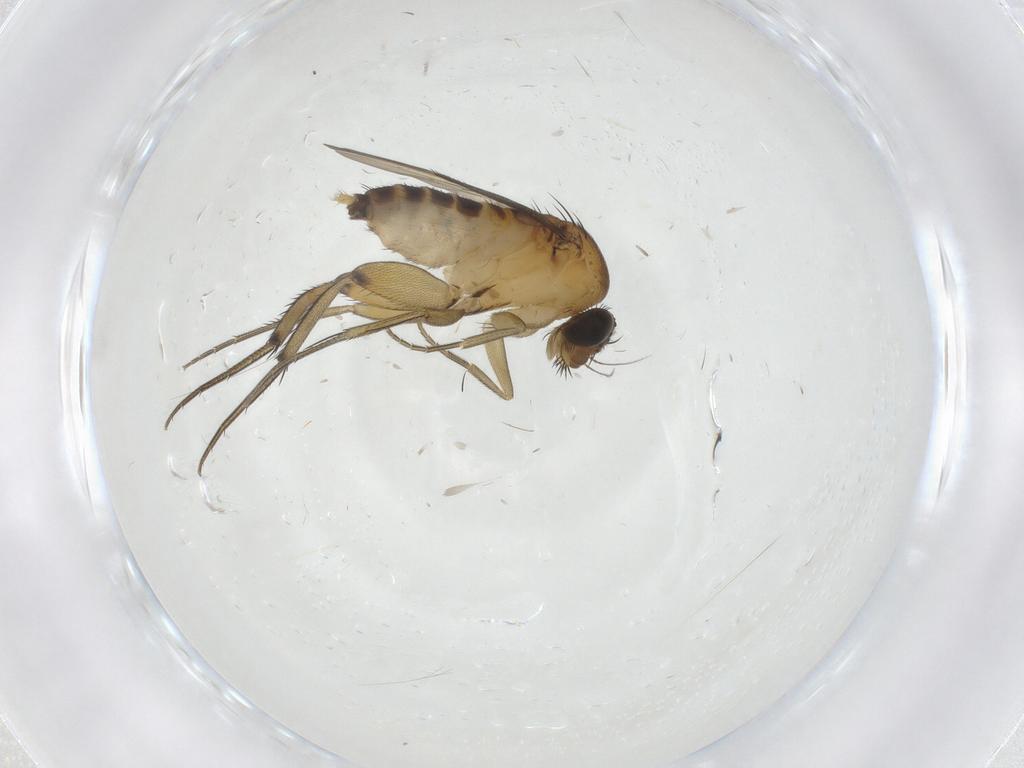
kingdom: Animalia
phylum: Arthropoda
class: Insecta
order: Diptera
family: Phoridae
